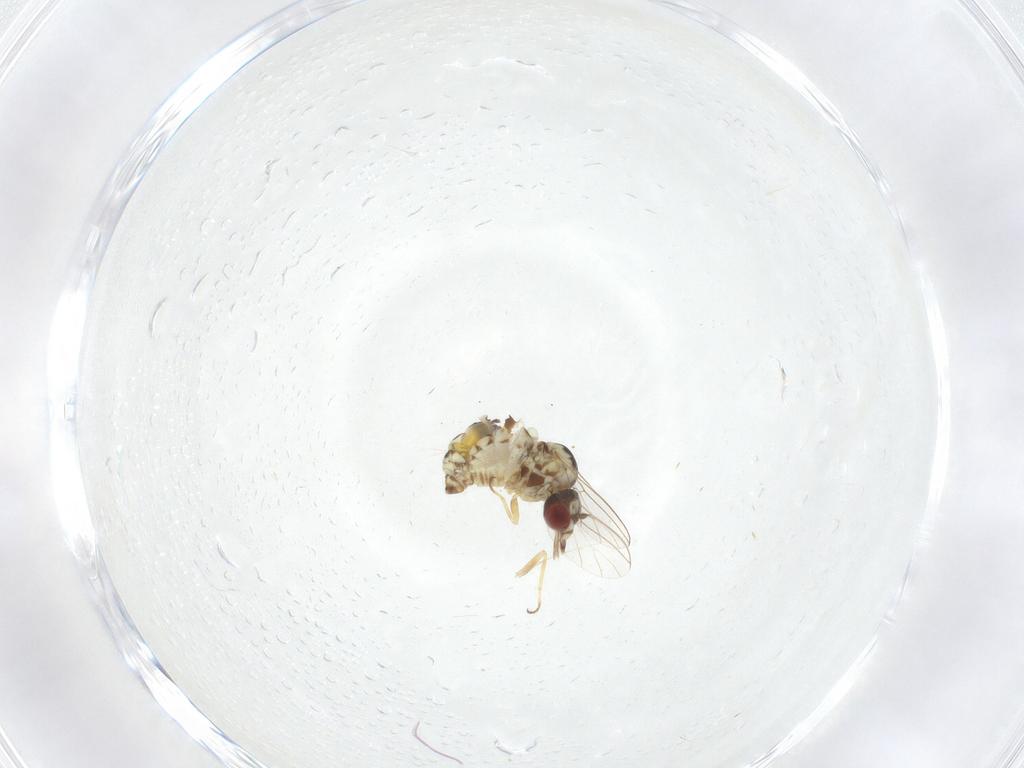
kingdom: Animalia
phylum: Arthropoda
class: Insecta
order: Diptera
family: Bombyliidae
